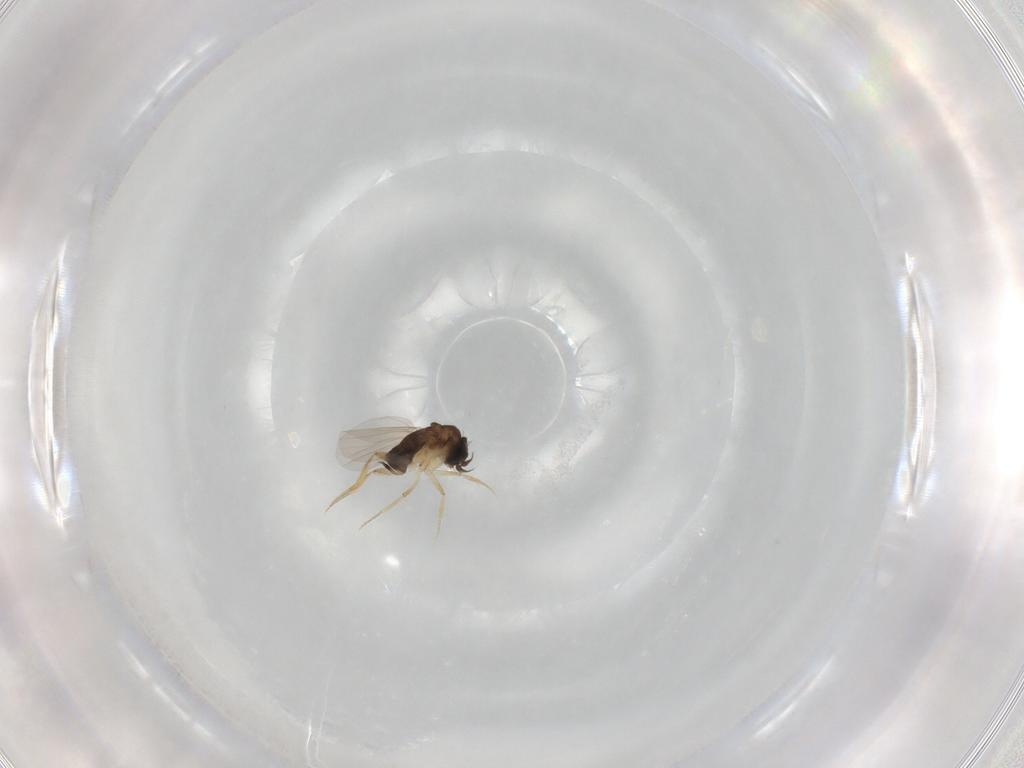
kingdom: Animalia
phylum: Arthropoda
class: Insecta
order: Diptera
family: Phoridae
